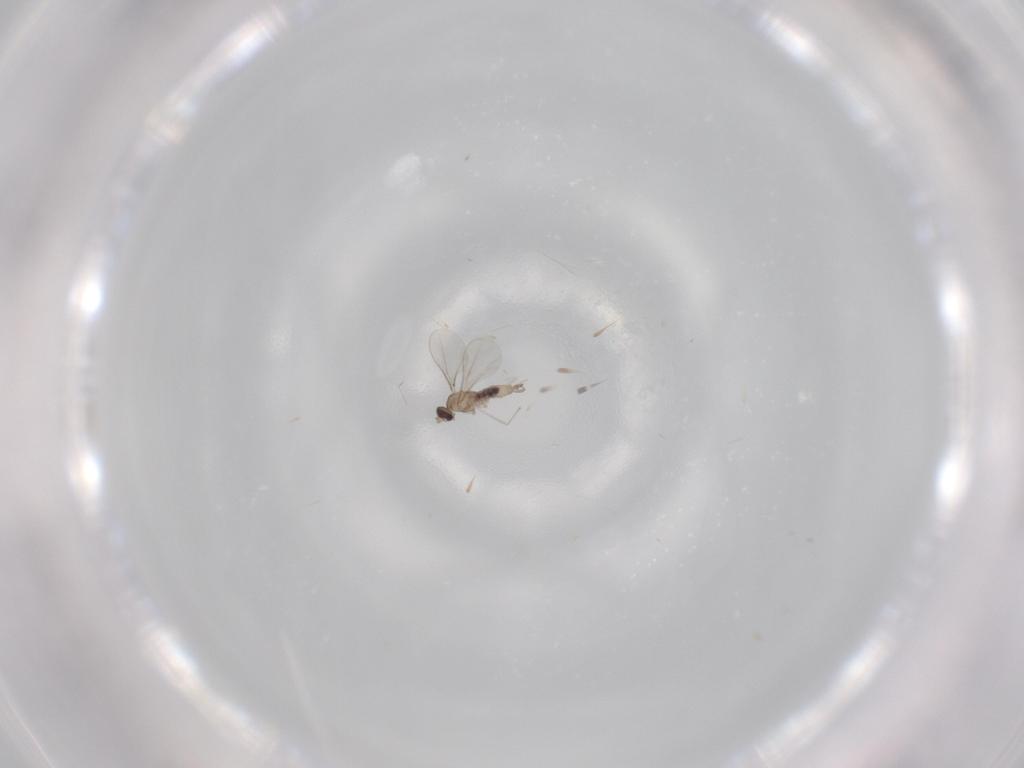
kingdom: Animalia
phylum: Arthropoda
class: Insecta
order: Diptera
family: Cecidomyiidae
